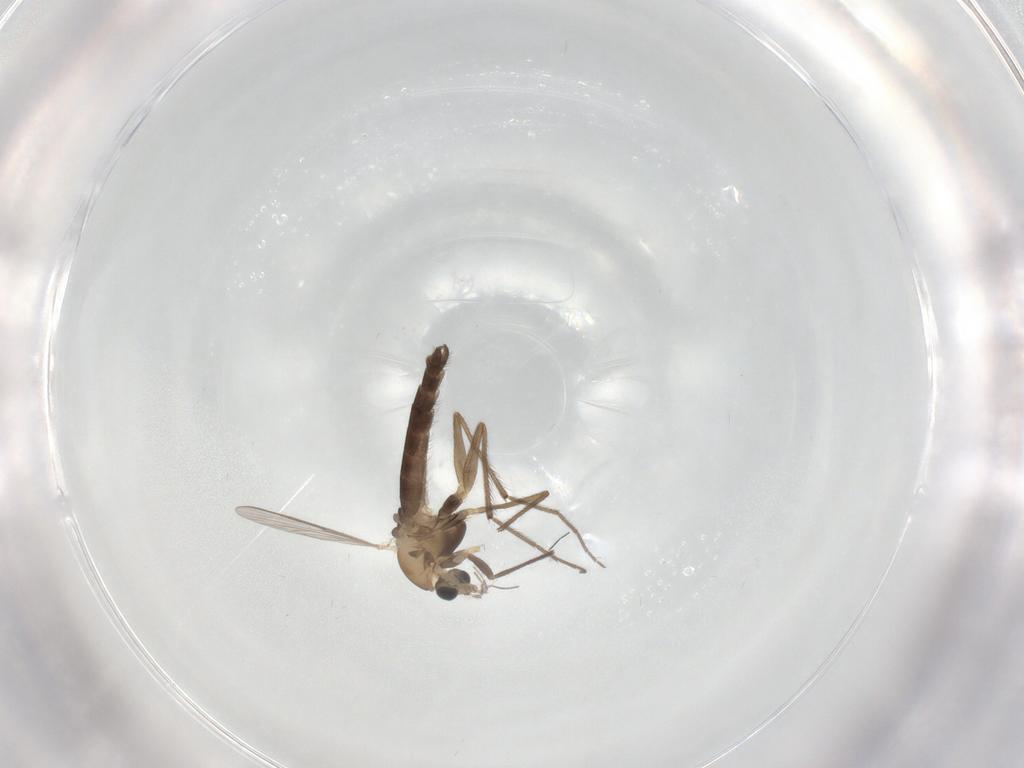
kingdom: Animalia
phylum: Arthropoda
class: Insecta
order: Diptera
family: Chironomidae
